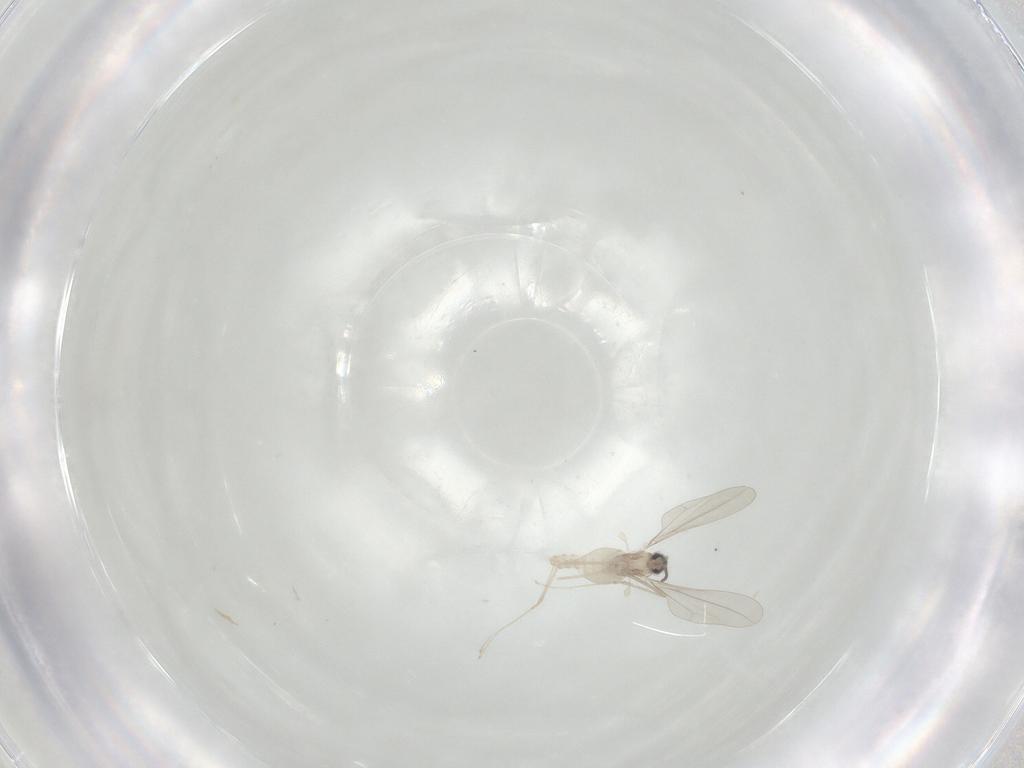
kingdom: Animalia
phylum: Arthropoda
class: Insecta
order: Diptera
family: Cecidomyiidae
